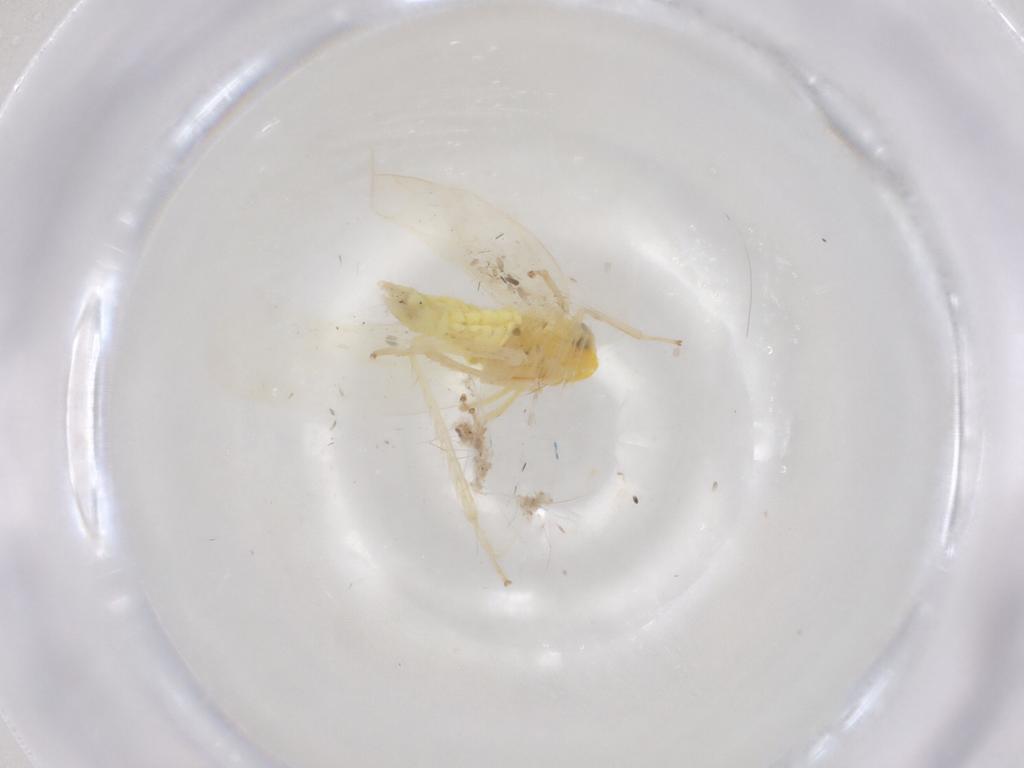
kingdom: Animalia
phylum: Arthropoda
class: Insecta
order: Hemiptera
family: Cicadellidae
